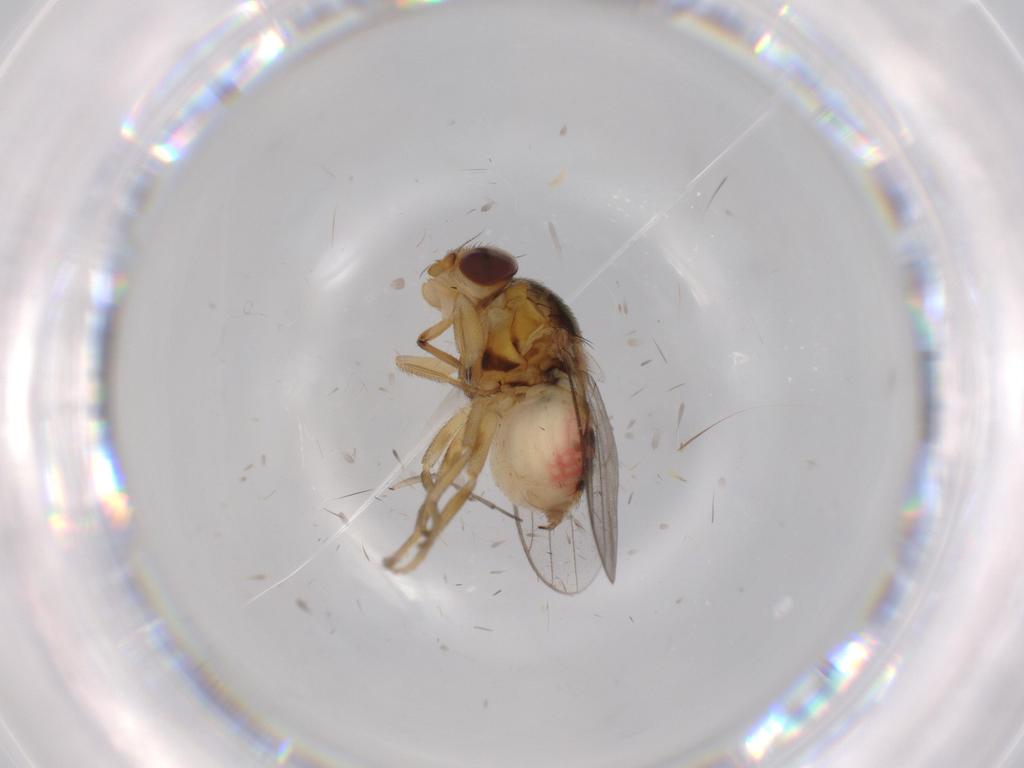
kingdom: Animalia
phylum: Arthropoda
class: Insecta
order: Diptera
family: Chloropidae
